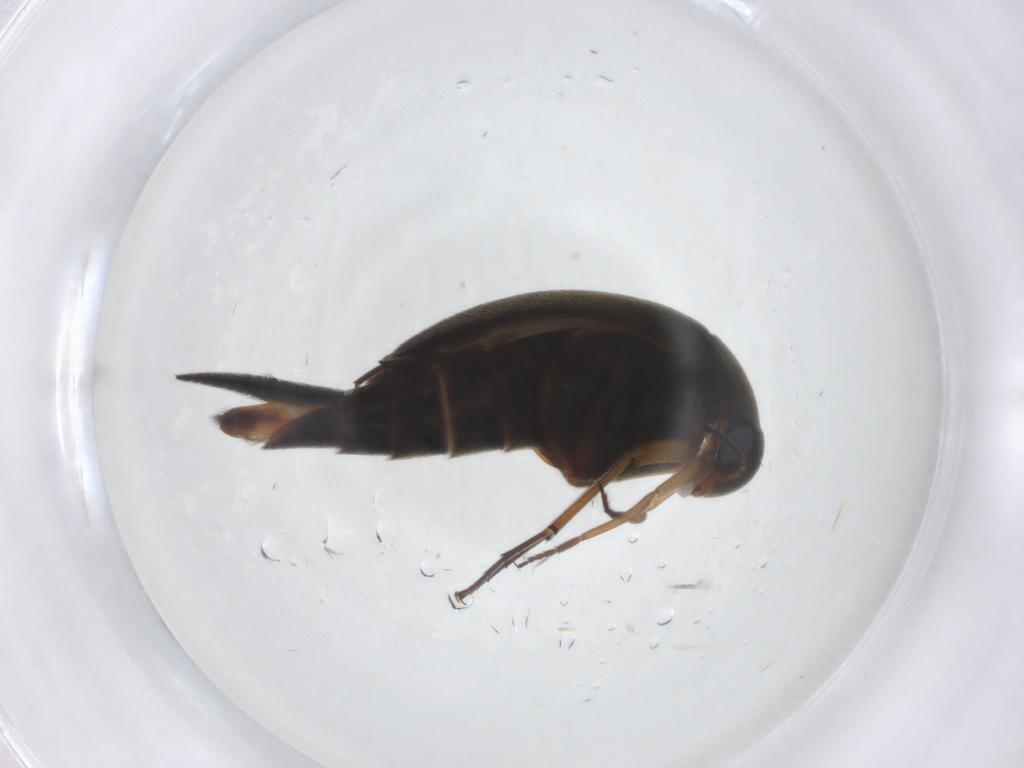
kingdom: Animalia
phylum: Arthropoda
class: Insecta
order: Coleoptera
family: Mordellidae
